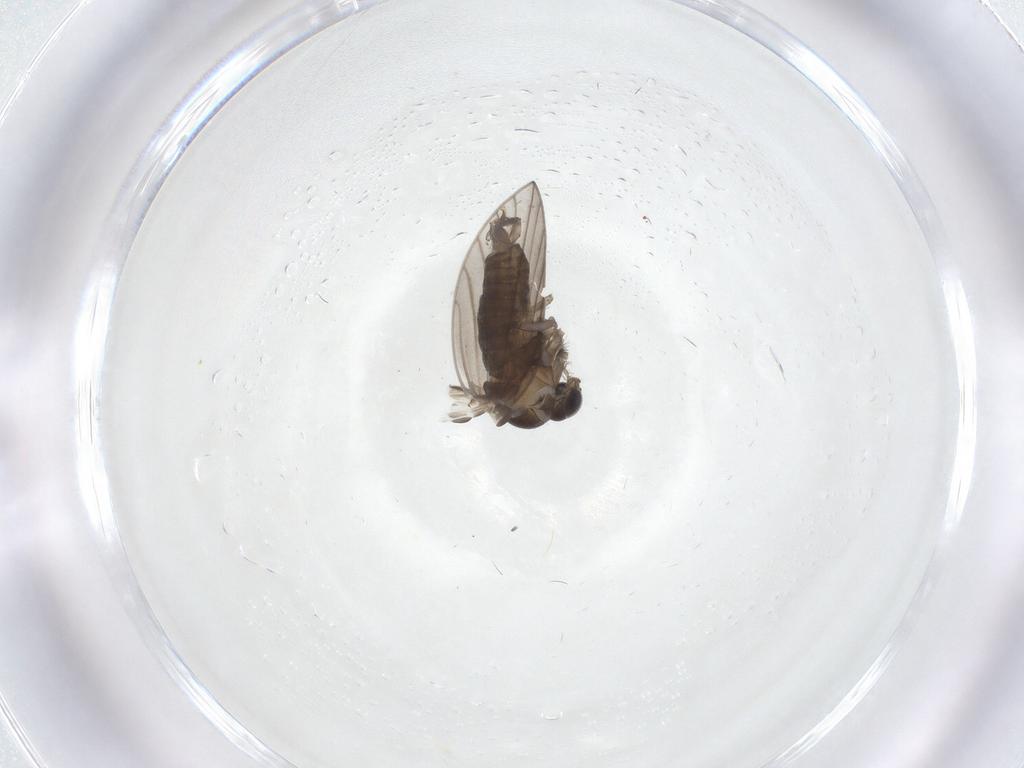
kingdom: Animalia
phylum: Arthropoda
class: Insecta
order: Diptera
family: Psychodidae
